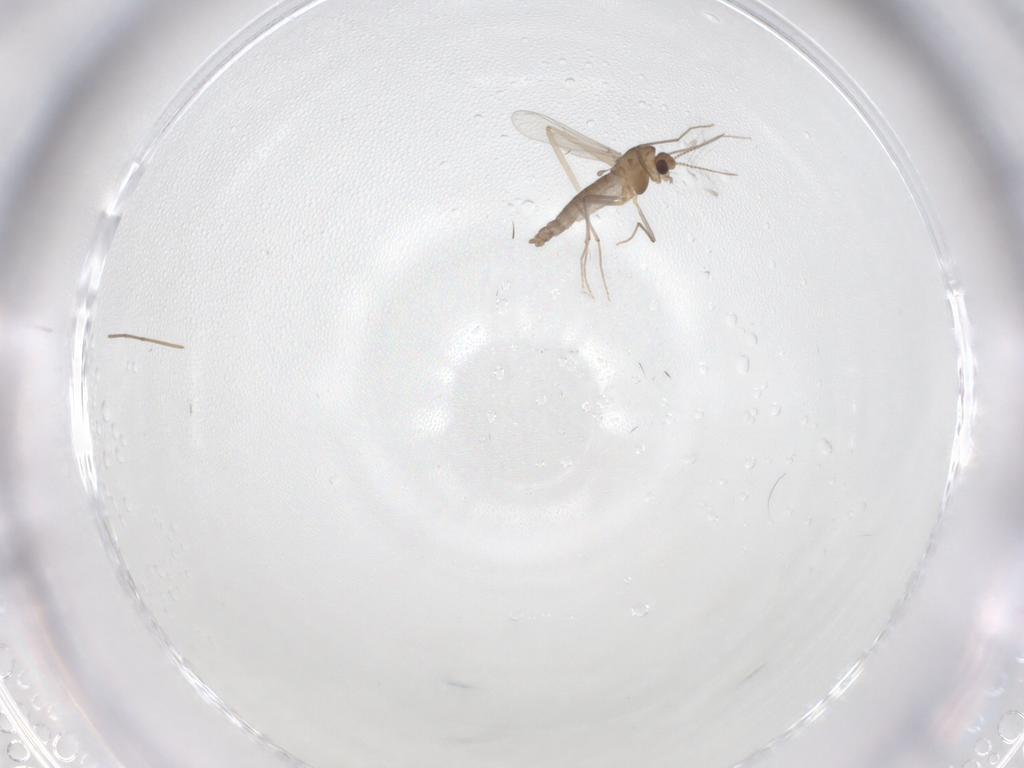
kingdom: Animalia
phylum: Arthropoda
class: Insecta
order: Diptera
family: Chironomidae
